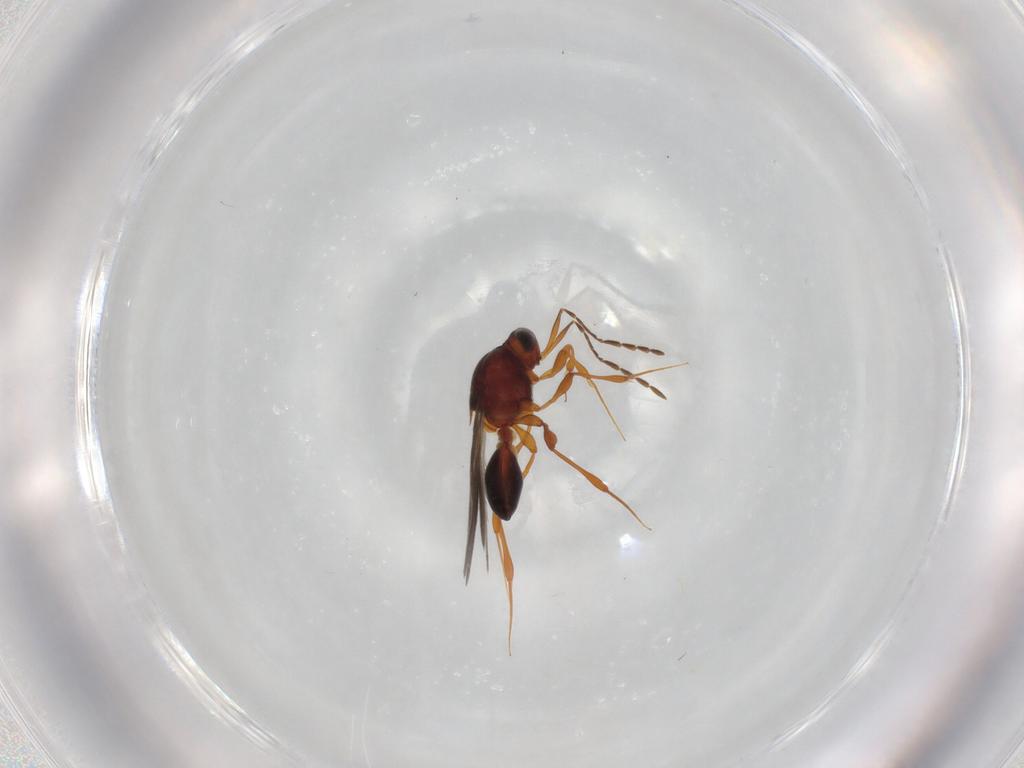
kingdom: Animalia
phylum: Arthropoda
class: Insecta
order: Hymenoptera
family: Platygastridae
